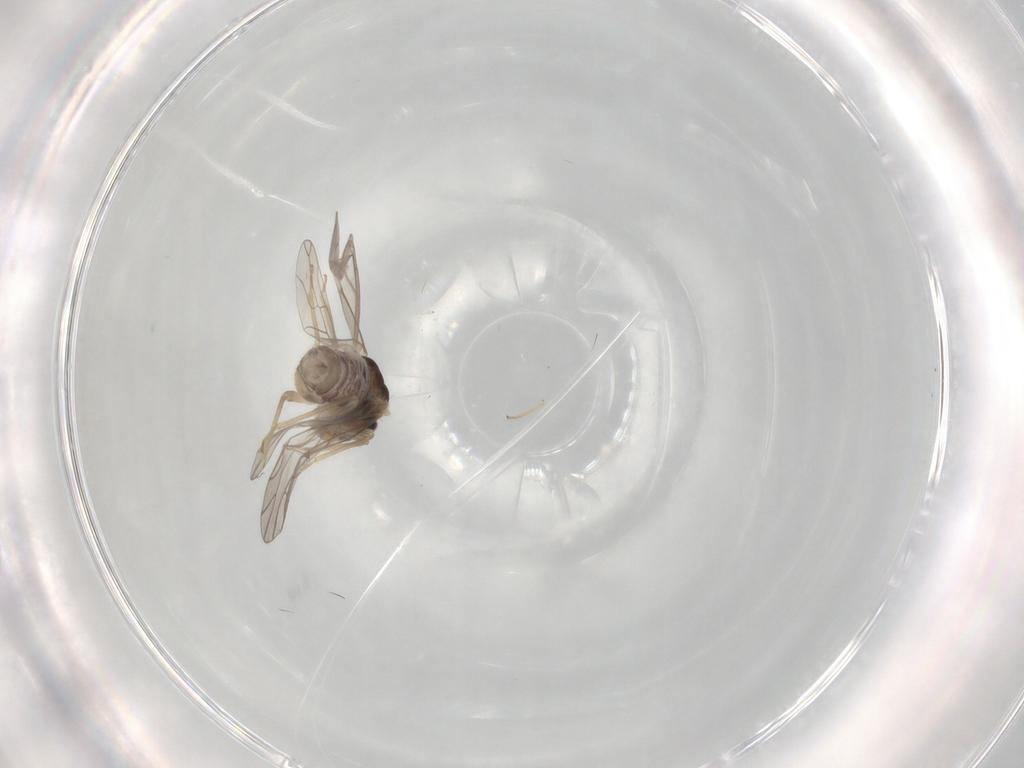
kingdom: Animalia
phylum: Arthropoda
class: Insecta
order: Psocodea
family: Lachesillidae
